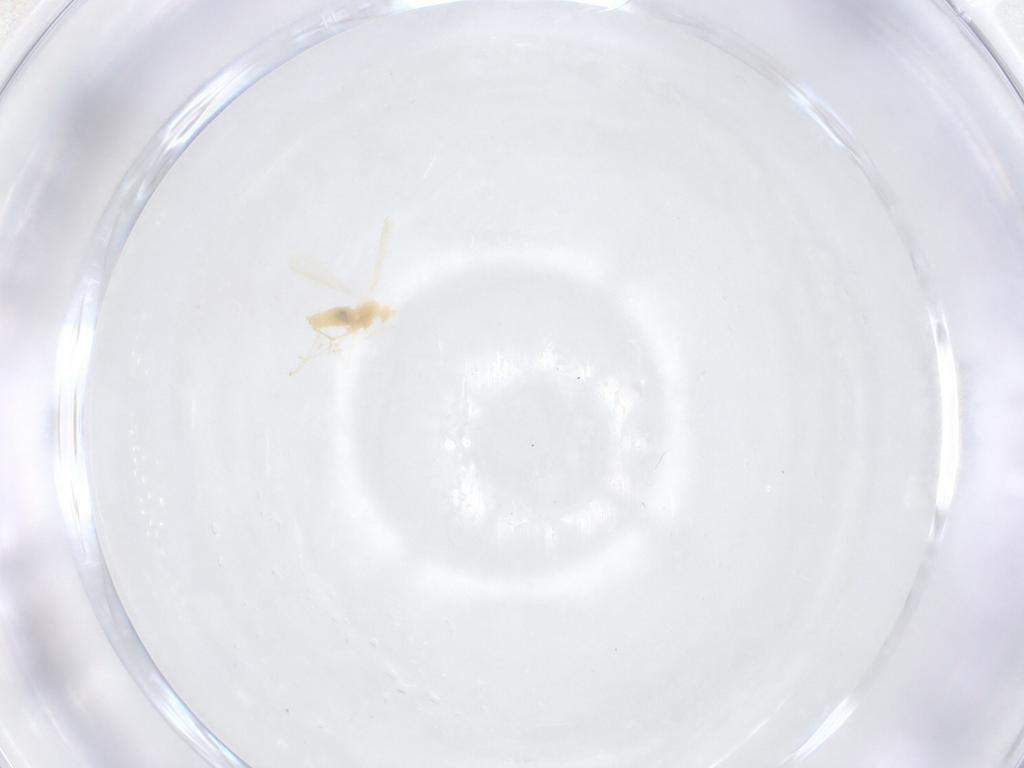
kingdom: Animalia
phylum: Arthropoda
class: Insecta
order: Diptera
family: Cecidomyiidae
